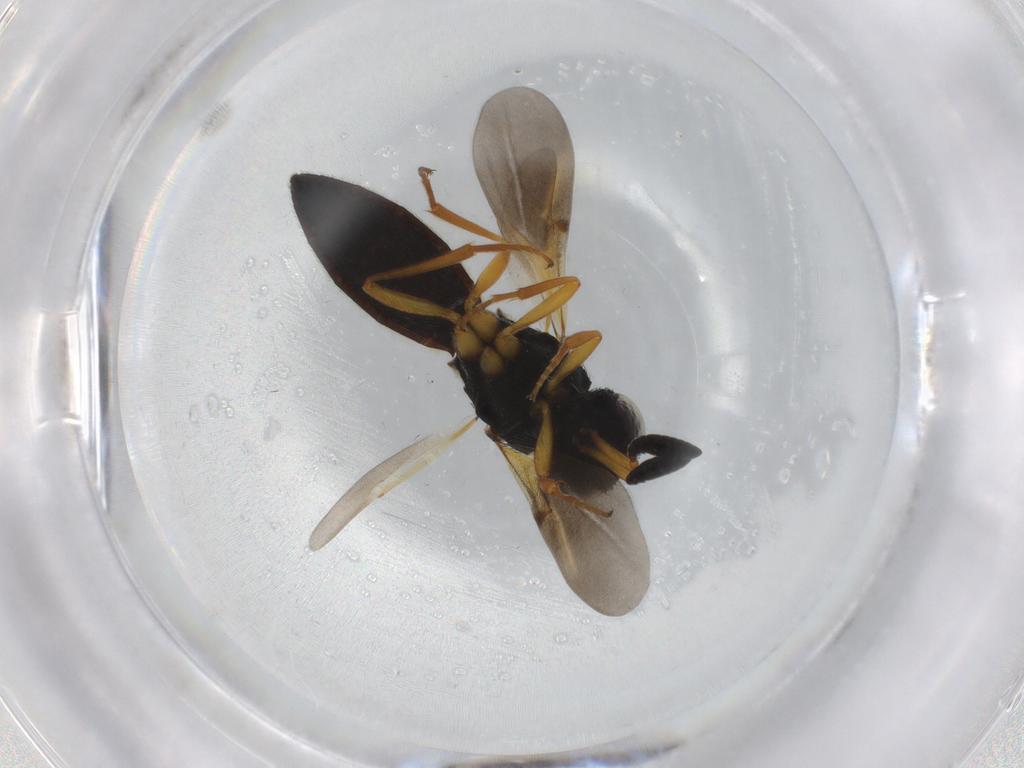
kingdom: Animalia
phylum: Arthropoda
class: Insecta
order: Hymenoptera
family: Scelionidae
